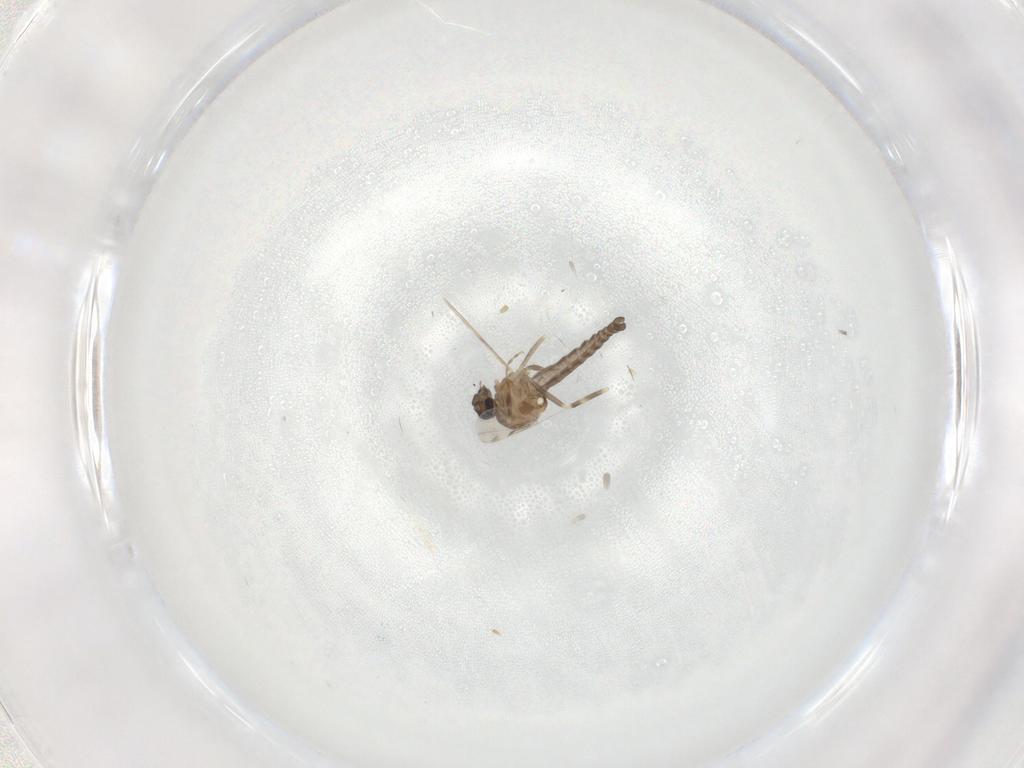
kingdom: Animalia
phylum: Arthropoda
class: Insecta
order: Diptera
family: Ceratopogonidae
